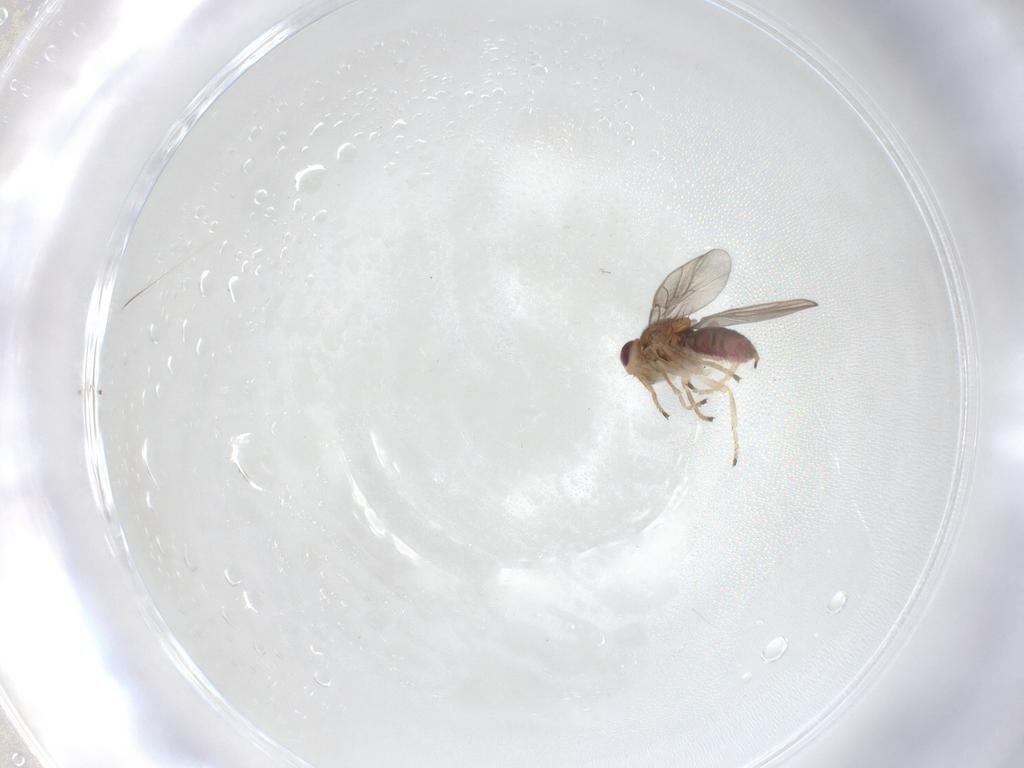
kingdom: Animalia
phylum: Arthropoda
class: Insecta
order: Diptera
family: Chloropidae
